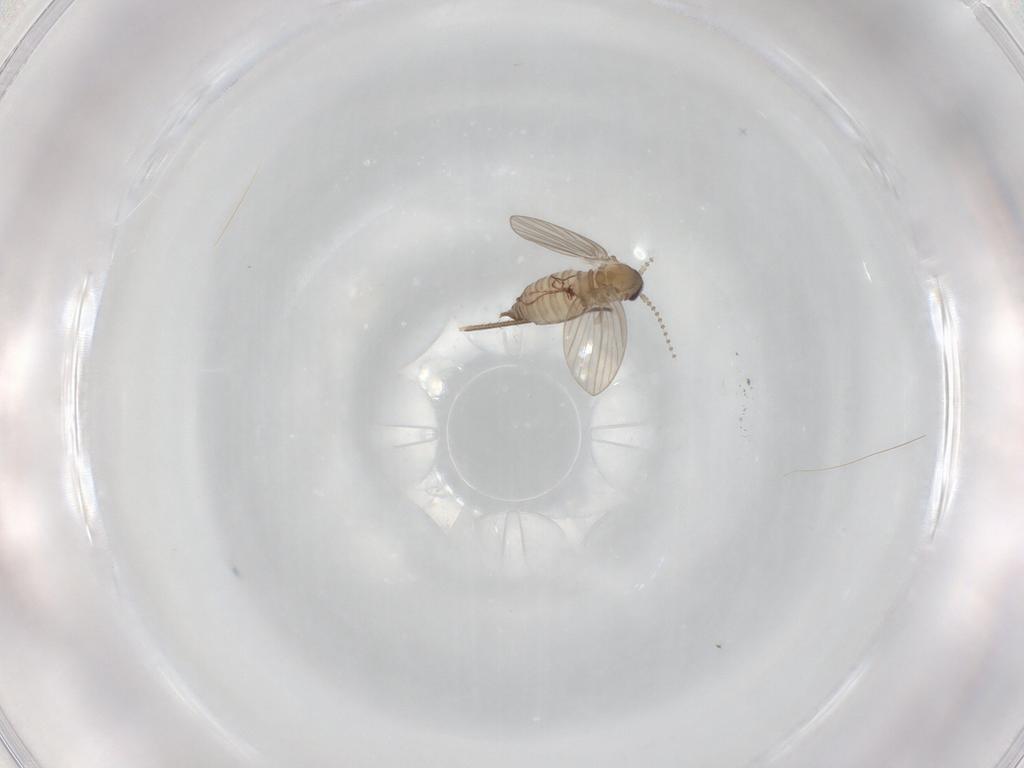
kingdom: Animalia
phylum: Arthropoda
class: Insecta
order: Diptera
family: Psychodidae
